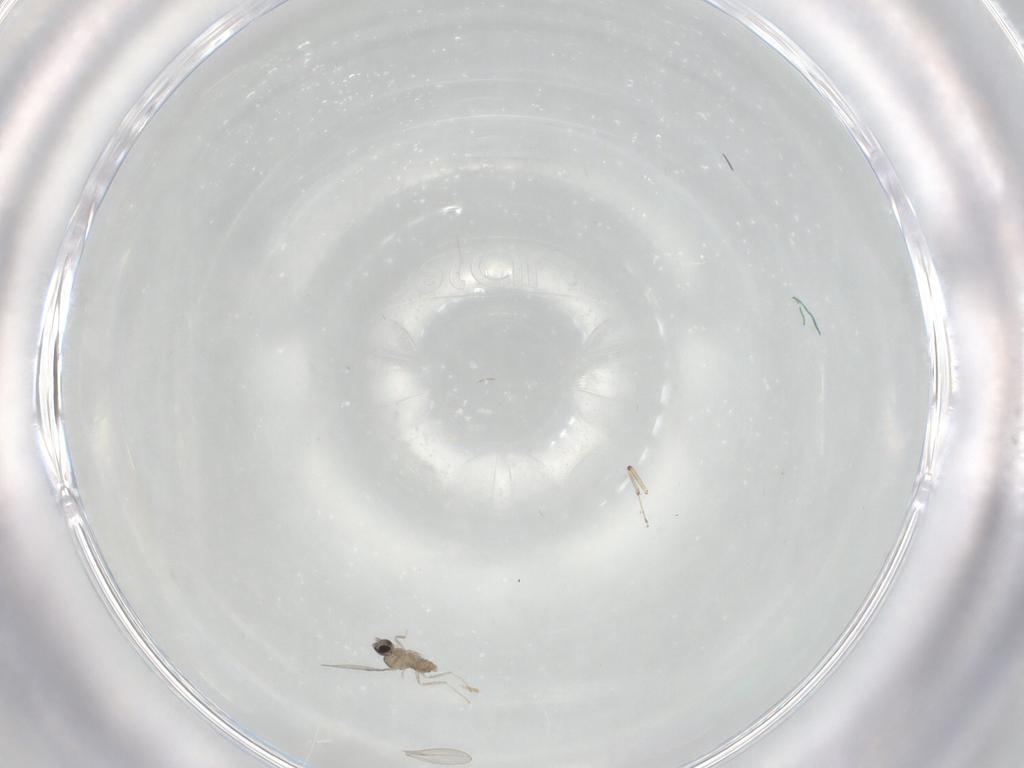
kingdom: Animalia
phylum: Arthropoda
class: Insecta
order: Diptera
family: Cecidomyiidae
